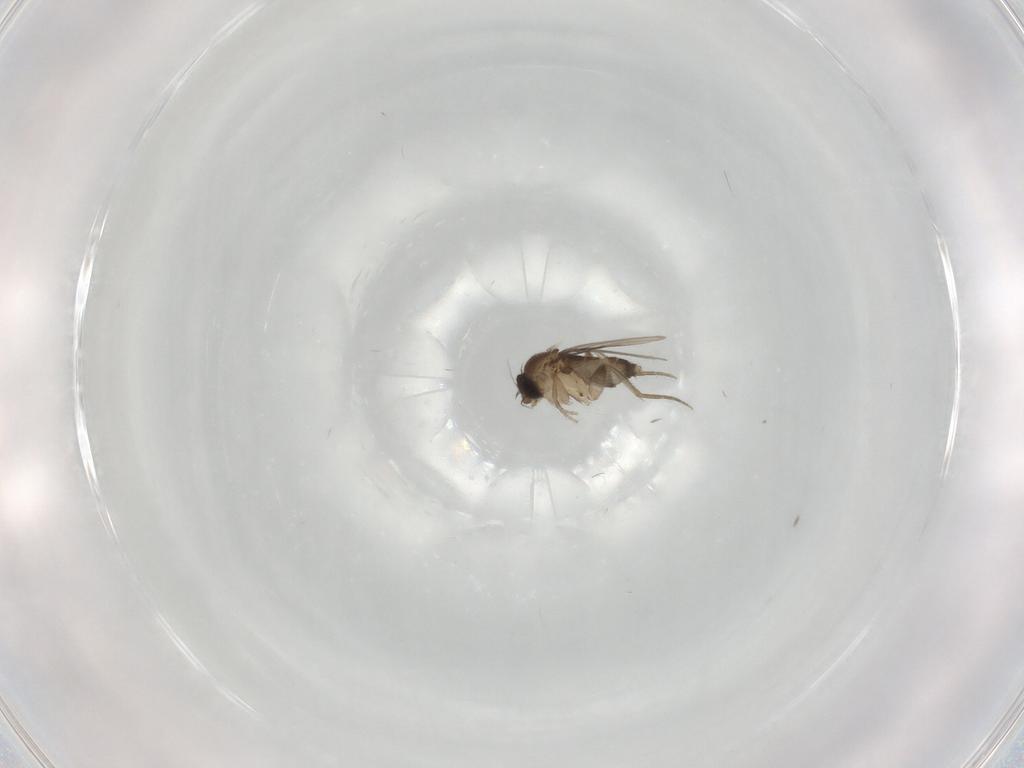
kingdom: Animalia
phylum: Arthropoda
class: Insecta
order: Diptera
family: Phoridae
